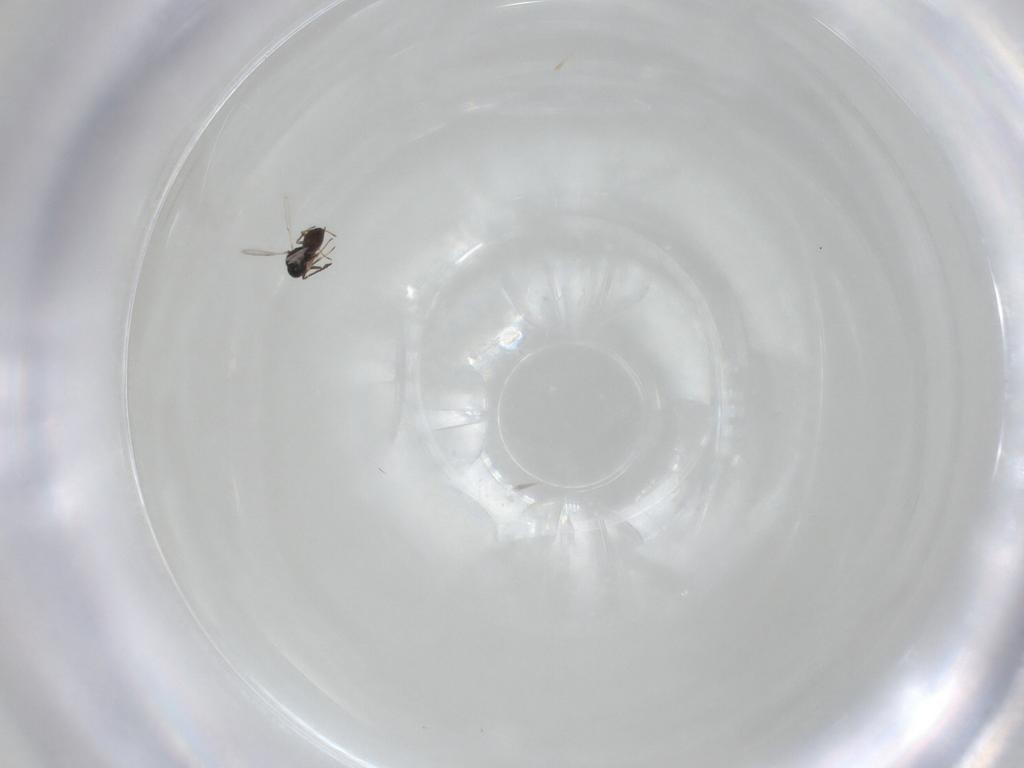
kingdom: Animalia
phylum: Arthropoda
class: Insecta
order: Hymenoptera
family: Scelionidae
